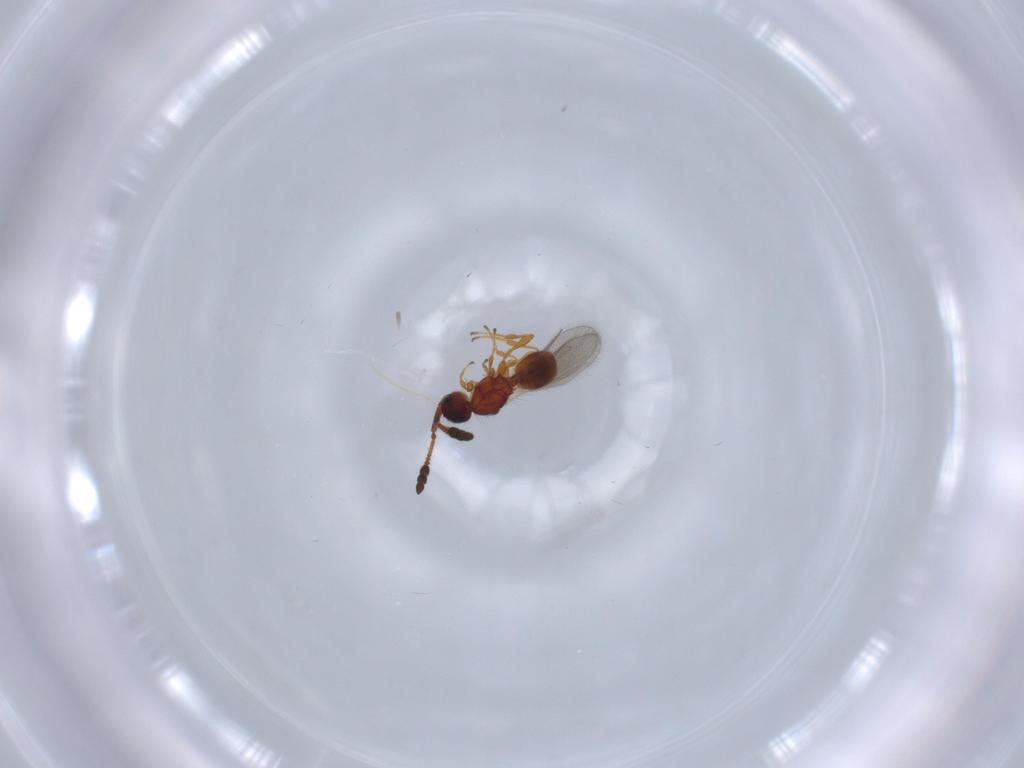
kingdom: Animalia
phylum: Arthropoda
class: Insecta
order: Hymenoptera
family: Diapriidae
